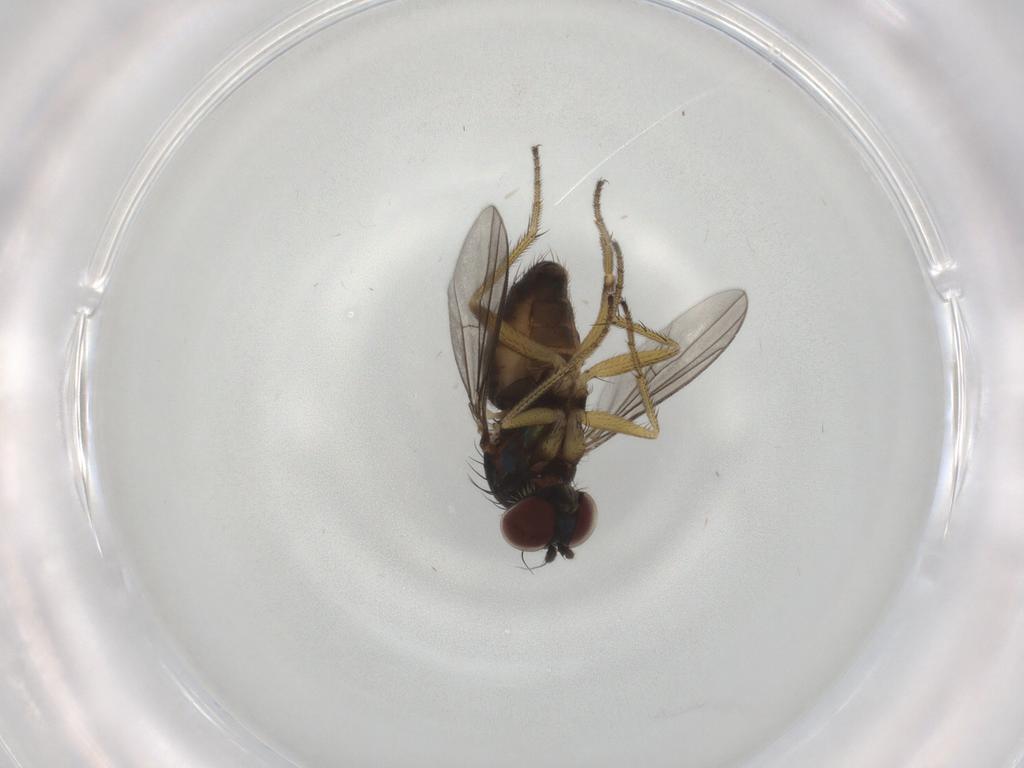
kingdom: Animalia
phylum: Arthropoda
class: Insecta
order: Diptera
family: Dolichopodidae
